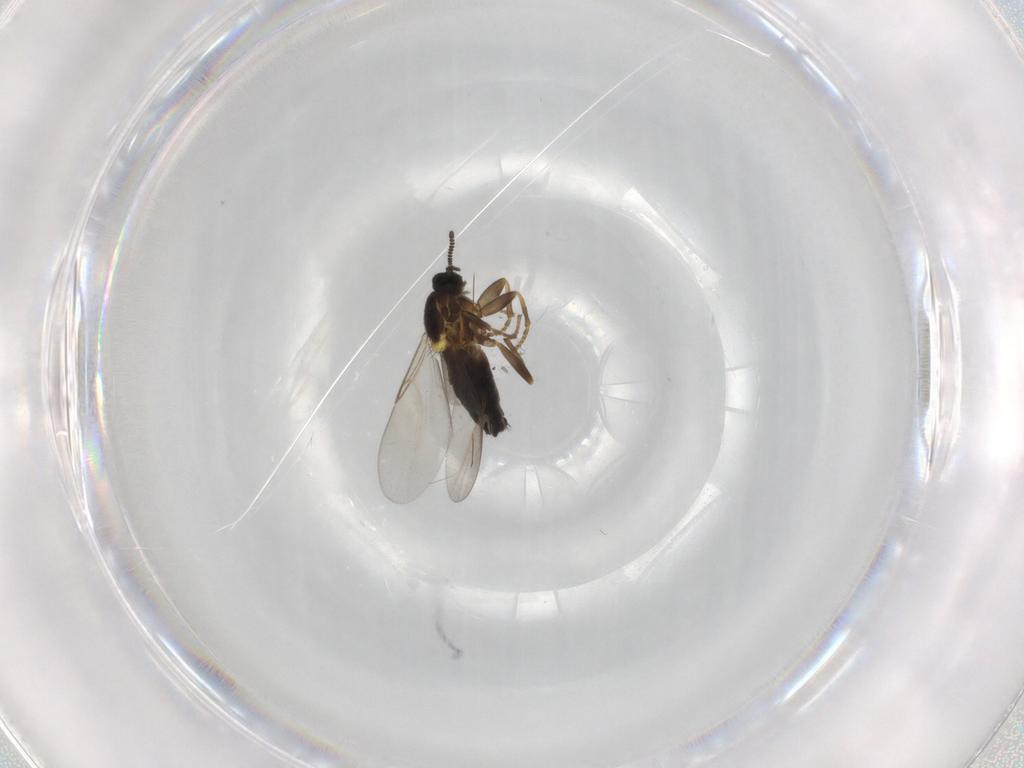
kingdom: Animalia
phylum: Arthropoda
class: Insecta
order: Diptera
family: Scatopsidae
